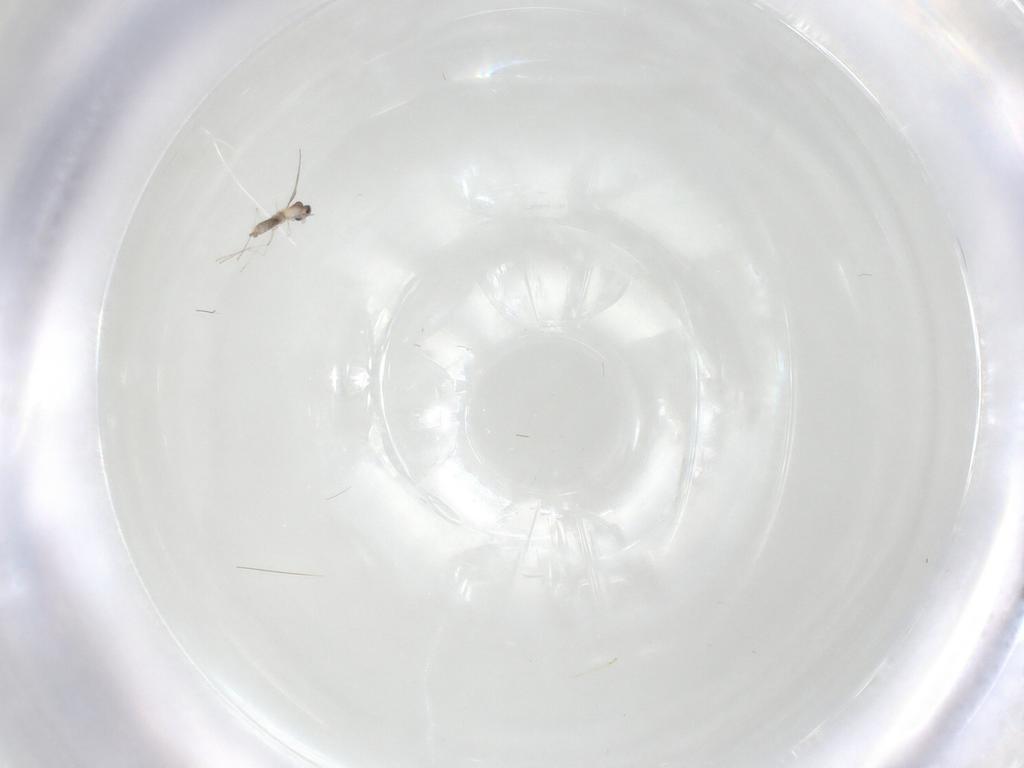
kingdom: Animalia
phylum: Arthropoda
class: Insecta
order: Diptera
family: Cecidomyiidae
